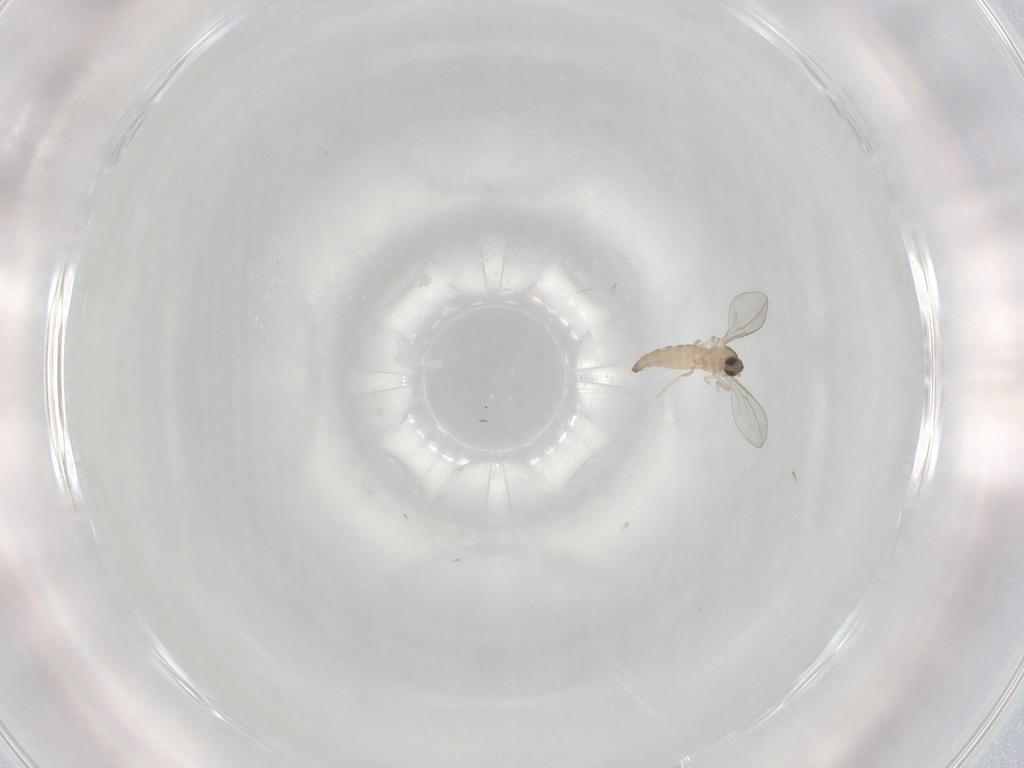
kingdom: Animalia
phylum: Arthropoda
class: Insecta
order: Diptera
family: Cecidomyiidae
